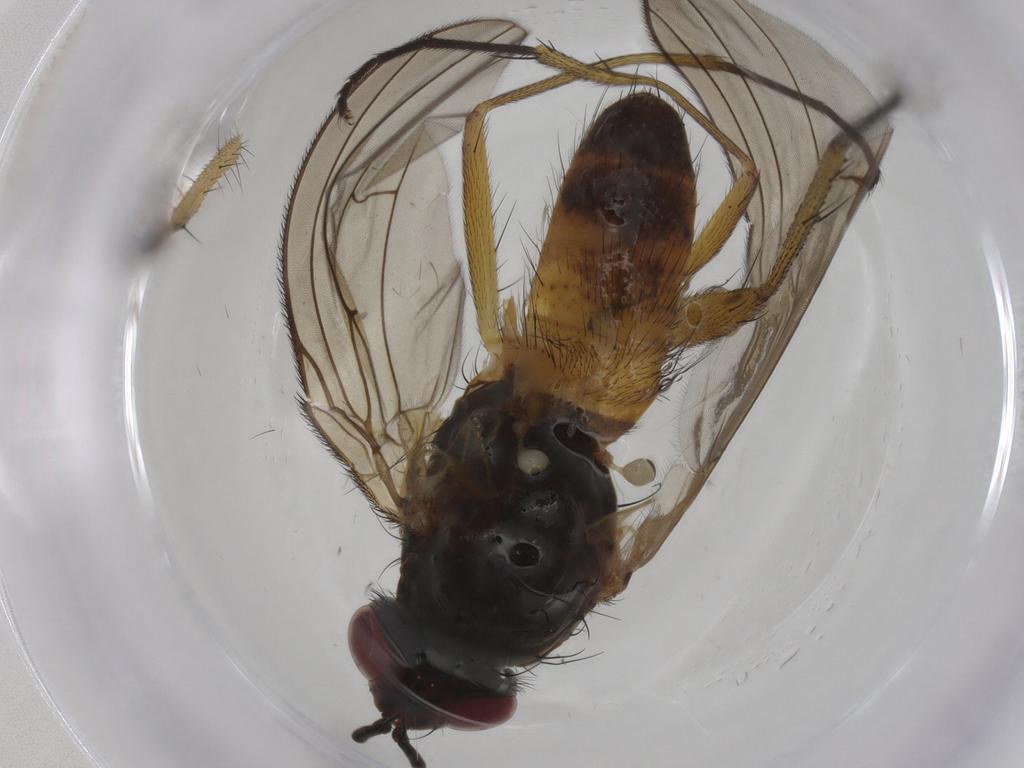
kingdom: Animalia
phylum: Arthropoda
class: Insecta
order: Diptera
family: Muscidae
